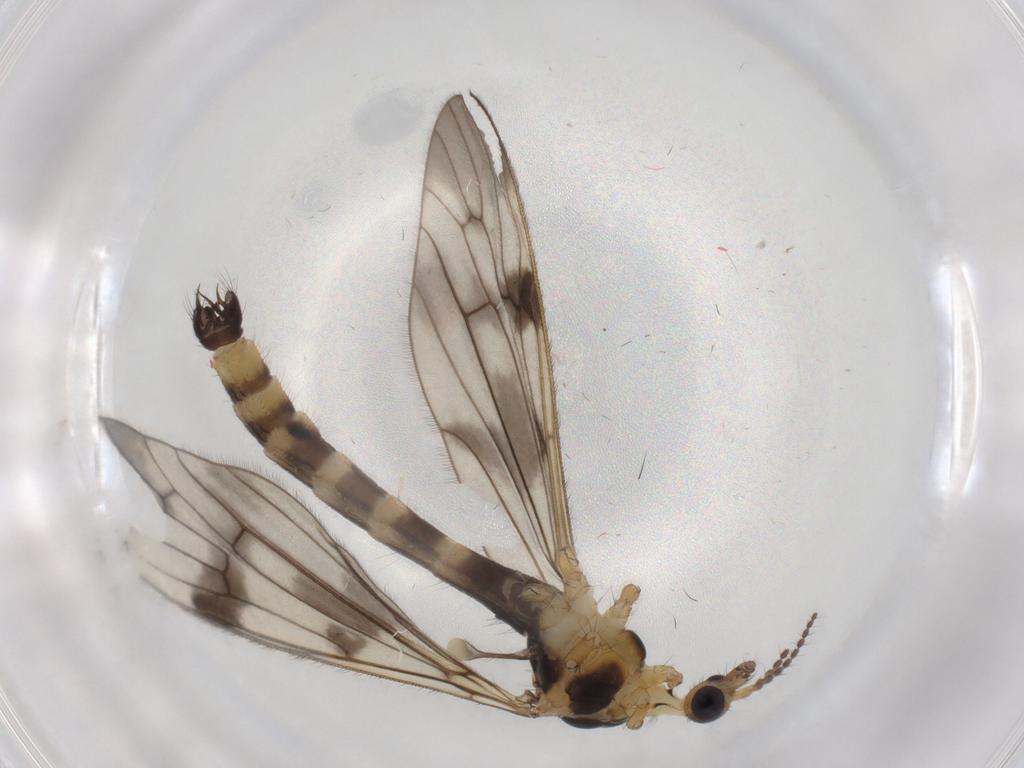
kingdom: Animalia
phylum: Arthropoda
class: Insecta
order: Diptera
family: Limoniidae
